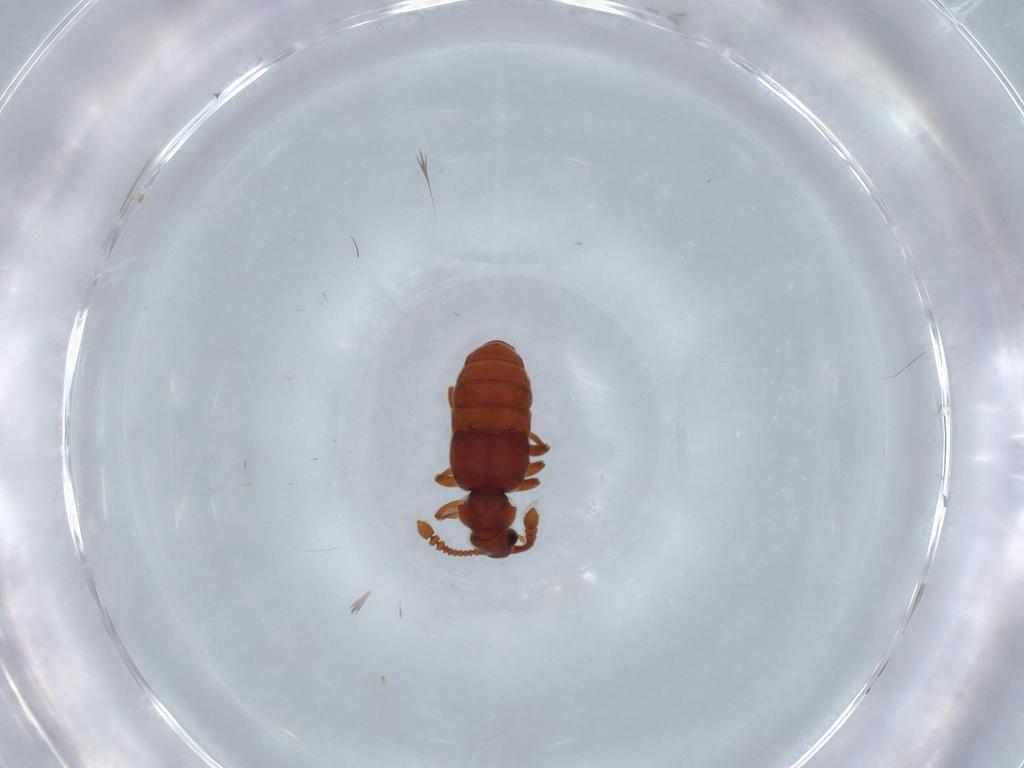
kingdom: Animalia
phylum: Arthropoda
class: Insecta
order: Coleoptera
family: Staphylinidae
